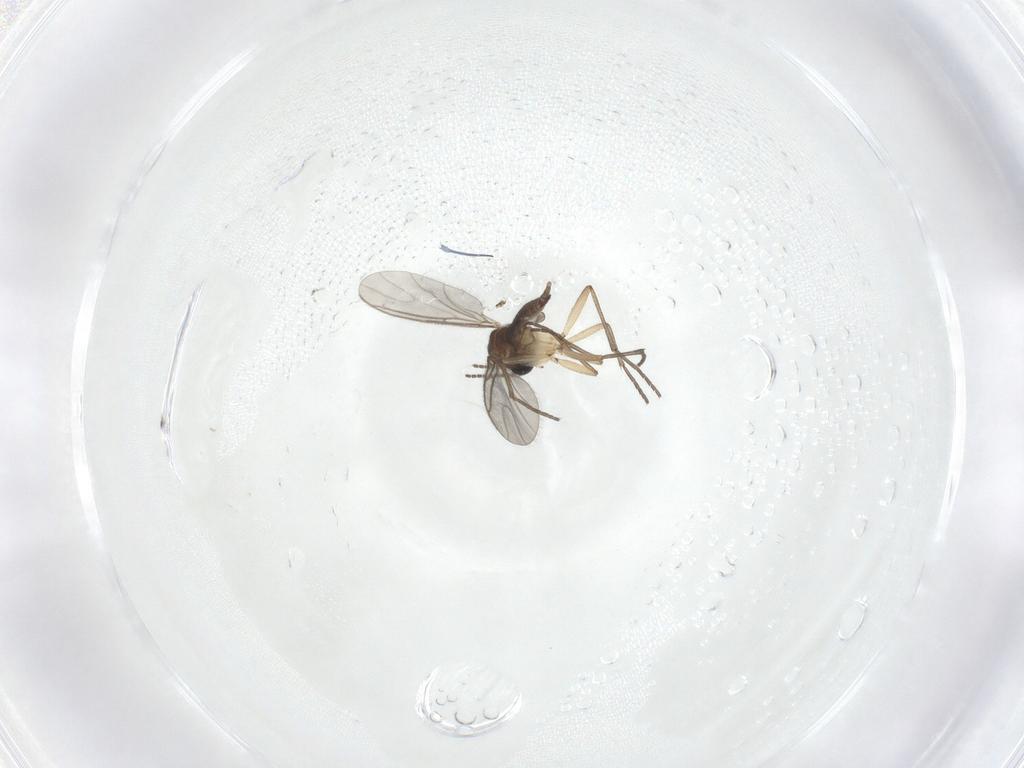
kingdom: Animalia
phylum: Arthropoda
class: Insecta
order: Diptera
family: Sciaridae
